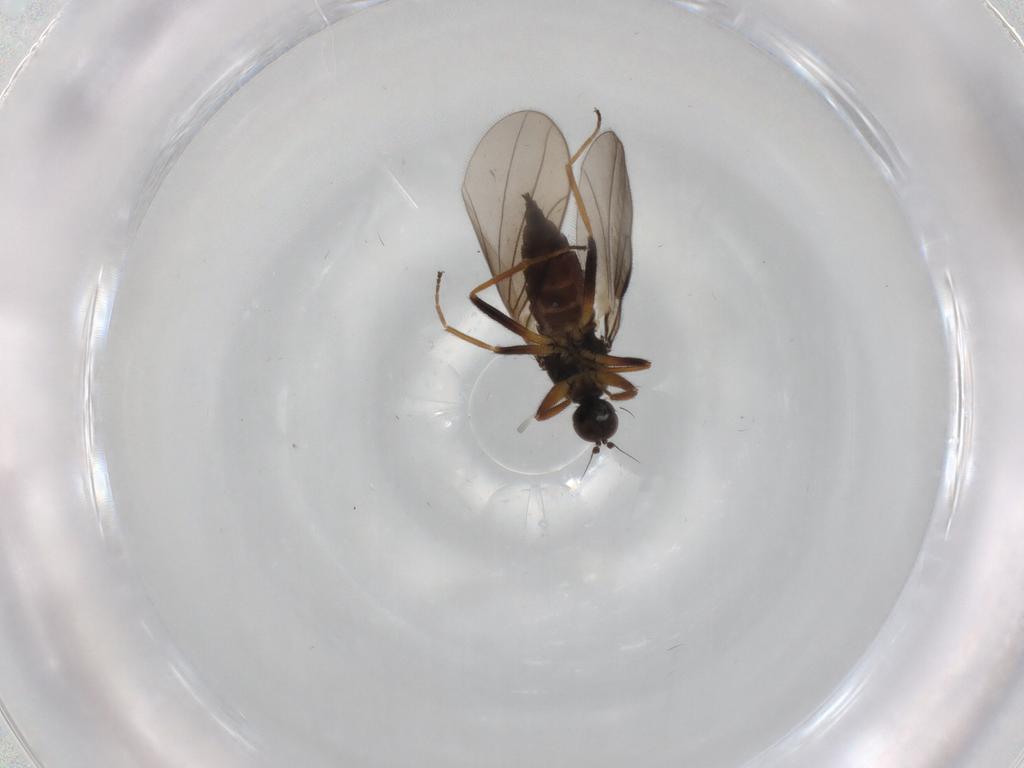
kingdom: Animalia
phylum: Arthropoda
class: Insecta
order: Diptera
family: Hybotidae
